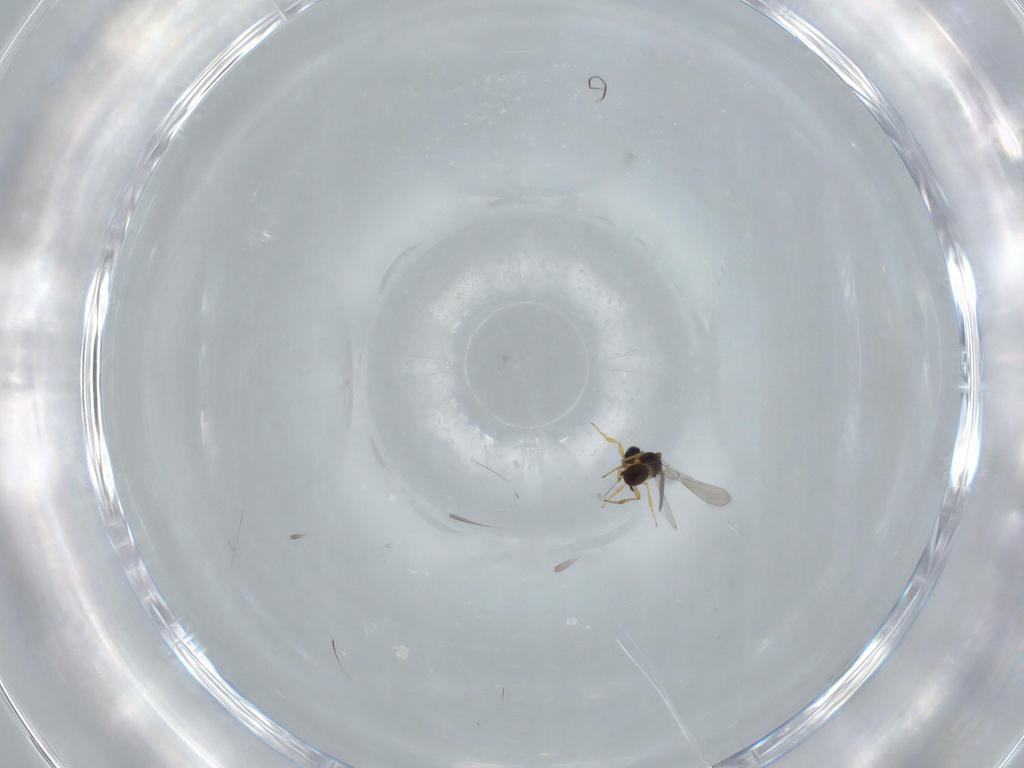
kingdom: Animalia
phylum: Arthropoda
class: Insecta
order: Hymenoptera
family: Platygastridae
